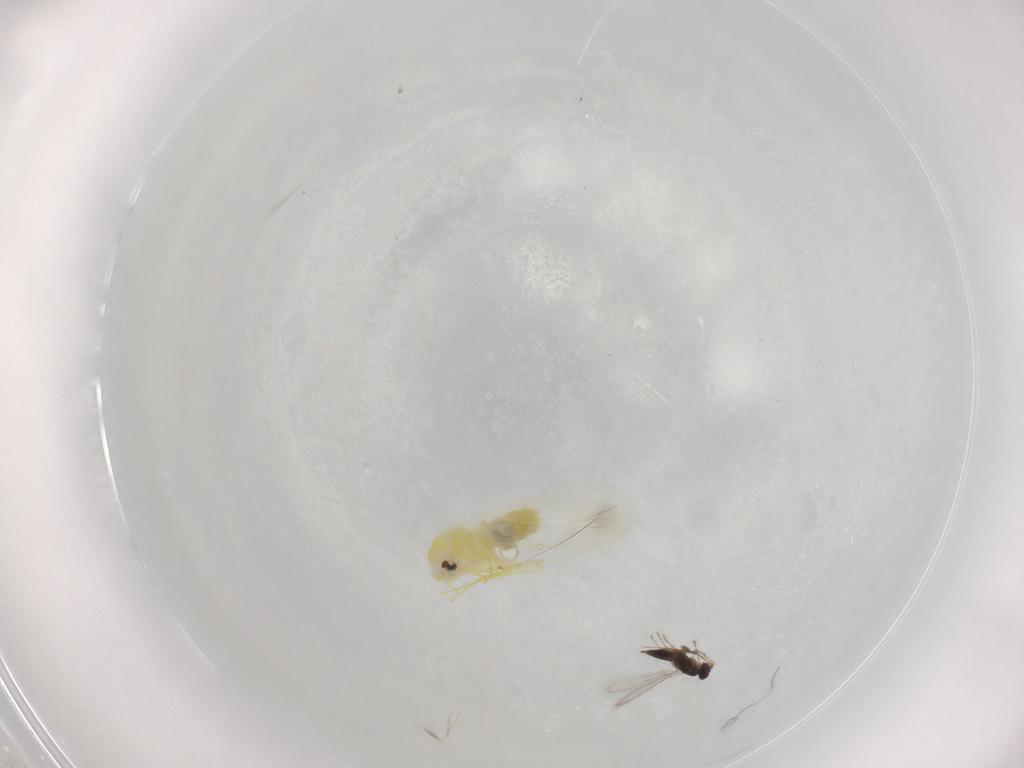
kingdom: Animalia
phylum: Arthropoda
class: Insecta
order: Hemiptera
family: Aleyrodidae
